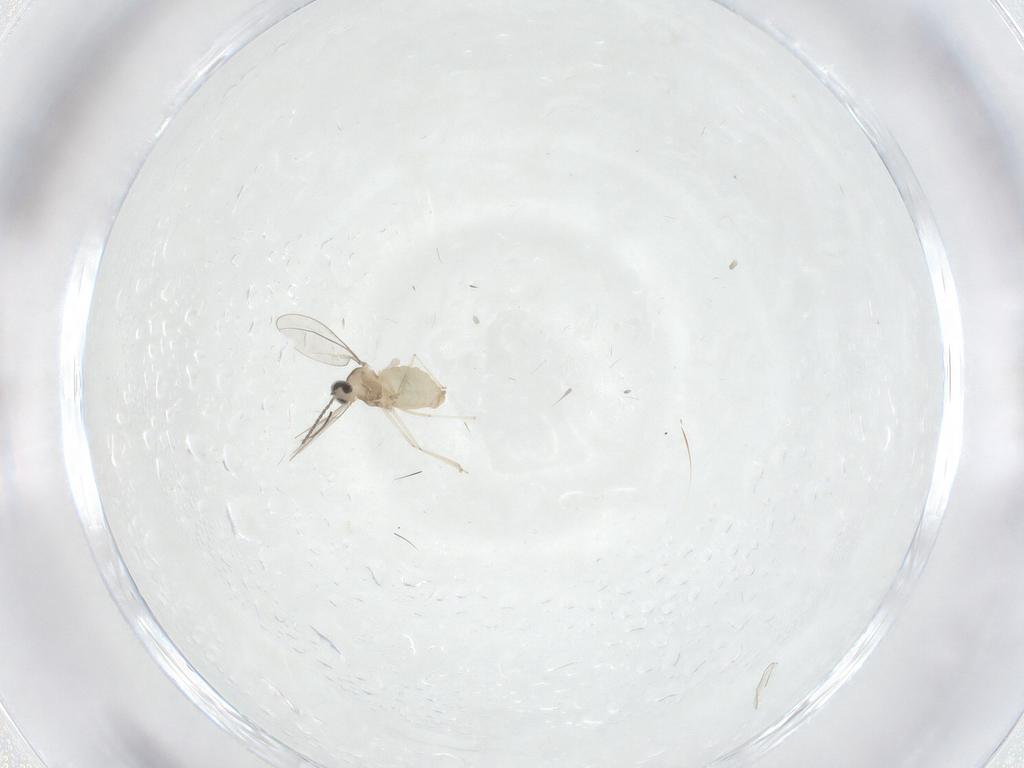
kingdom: Animalia
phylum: Arthropoda
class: Insecta
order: Diptera
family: Cecidomyiidae
